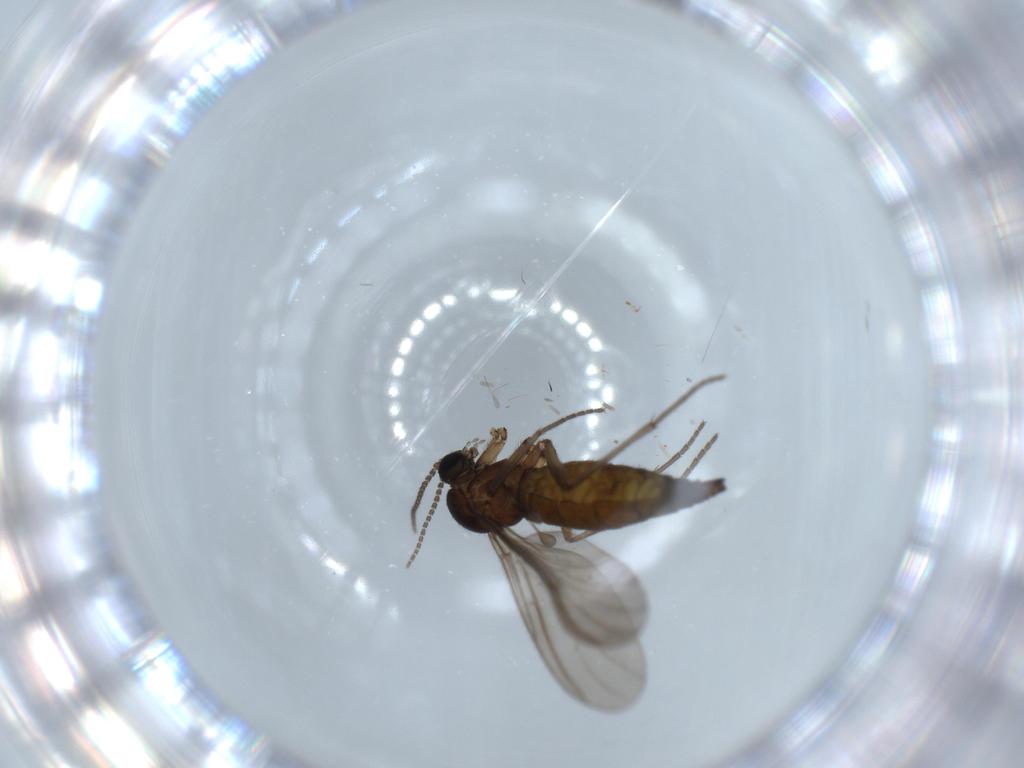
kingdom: Animalia
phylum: Arthropoda
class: Insecta
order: Diptera
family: Sciaridae
